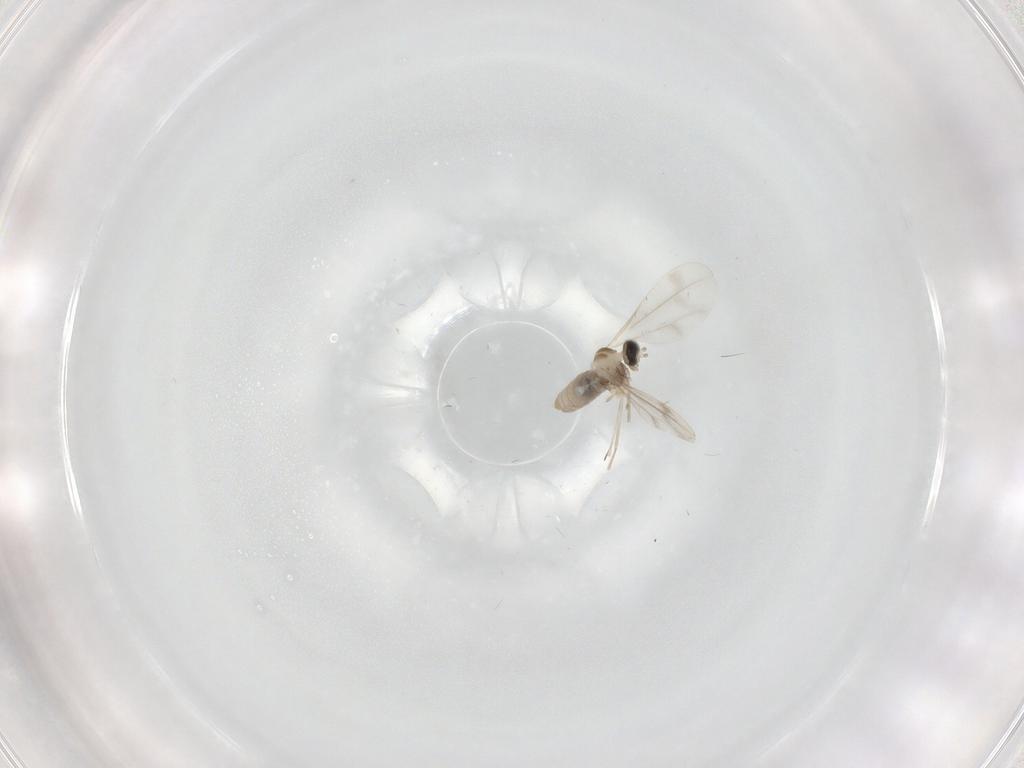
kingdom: Animalia
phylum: Arthropoda
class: Insecta
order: Diptera
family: Cecidomyiidae
